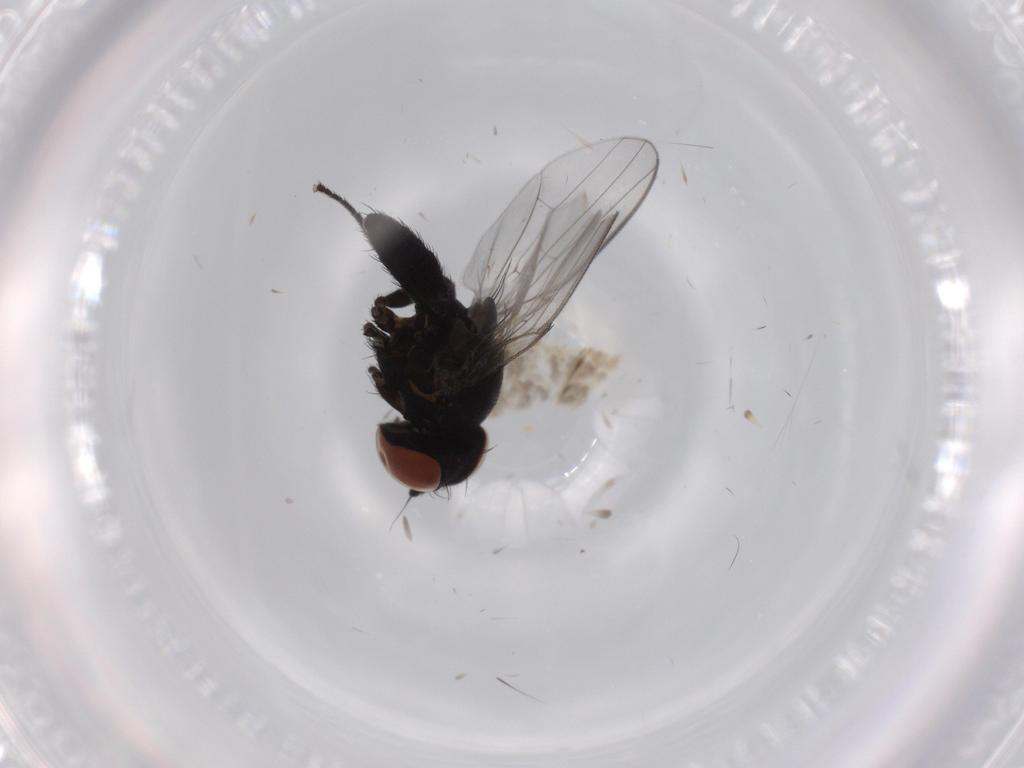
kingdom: Animalia
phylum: Arthropoda
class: Insecta
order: Diptera
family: Milichiidae
